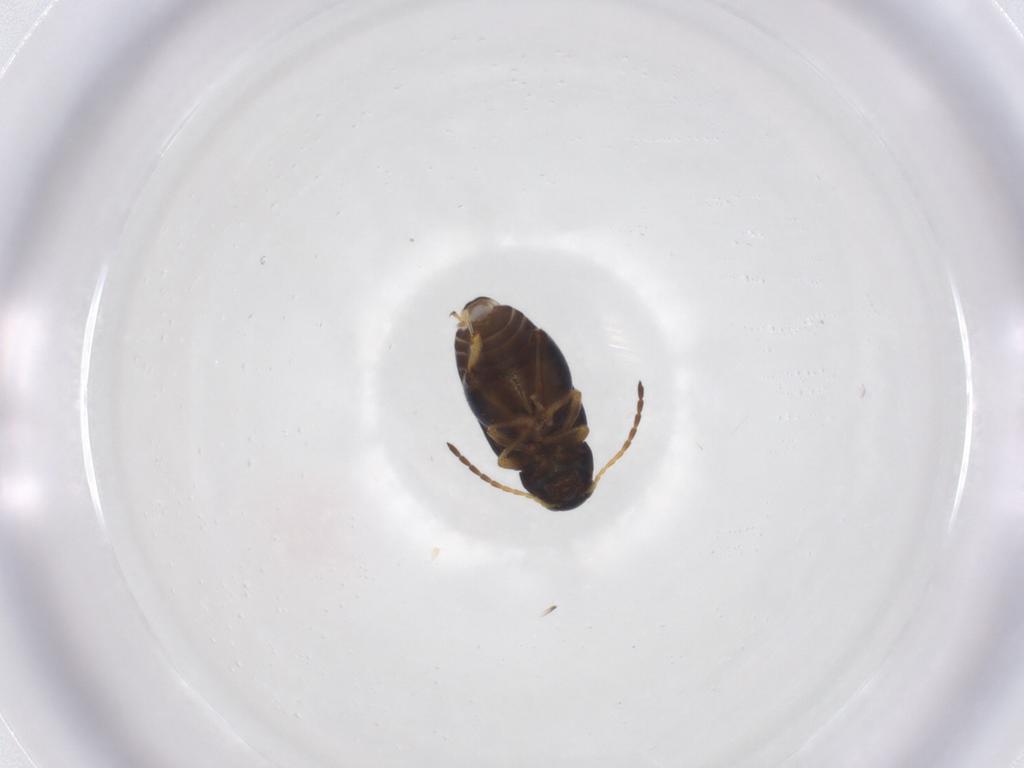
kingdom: Animalia
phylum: Arthropoda
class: Insecta
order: Coleoptera
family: Chrysomelidae
